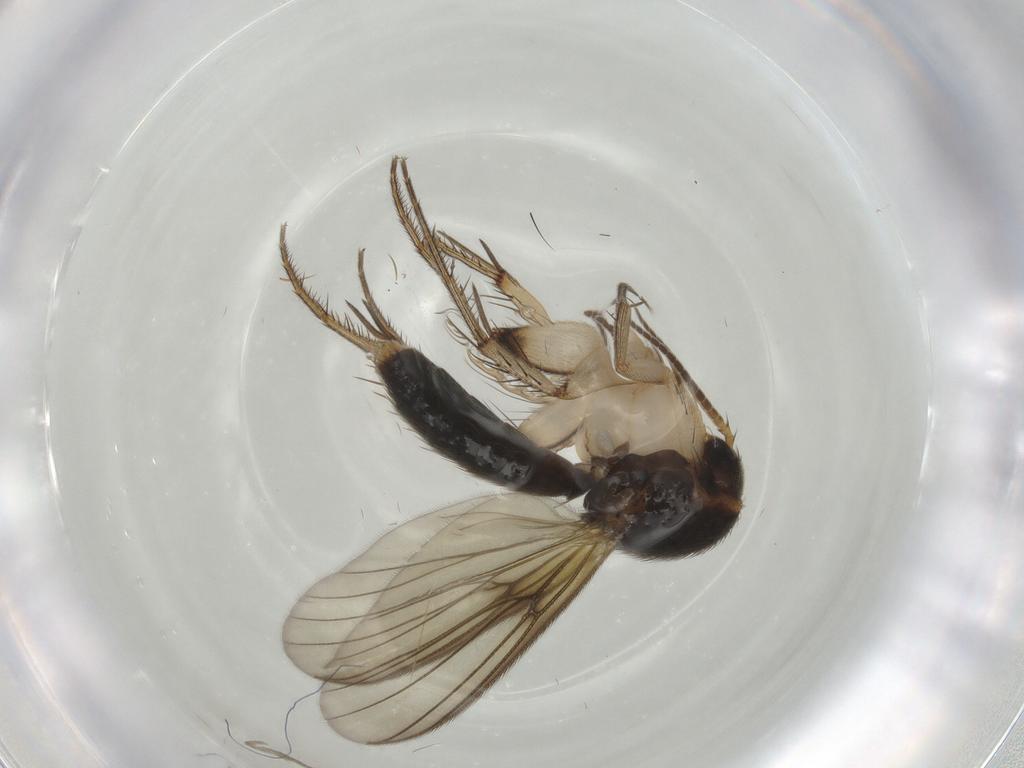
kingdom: Animalia
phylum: Arthropoda
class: Insecta
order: Diptera
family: Mycetophilidae
